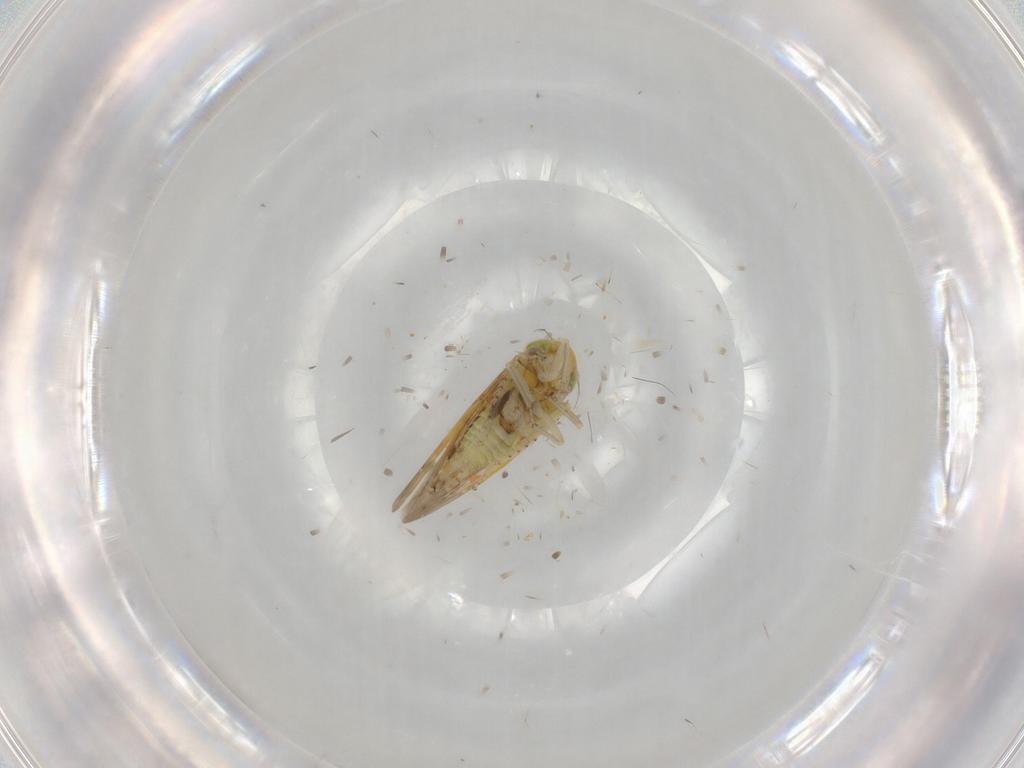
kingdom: Animalia
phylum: Arthropoda
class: Insecta
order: Hemiptera
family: Cicadellidae
